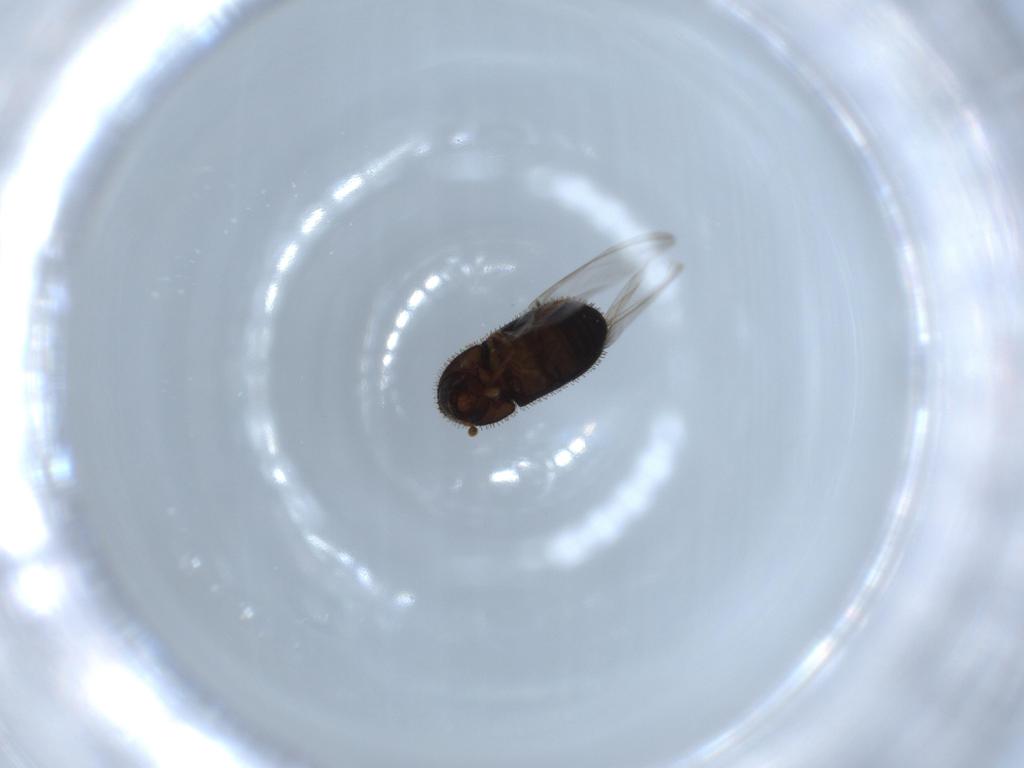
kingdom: Animalia
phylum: Arthropoda
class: Insecta
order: Coleoptera
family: Curculionidae
